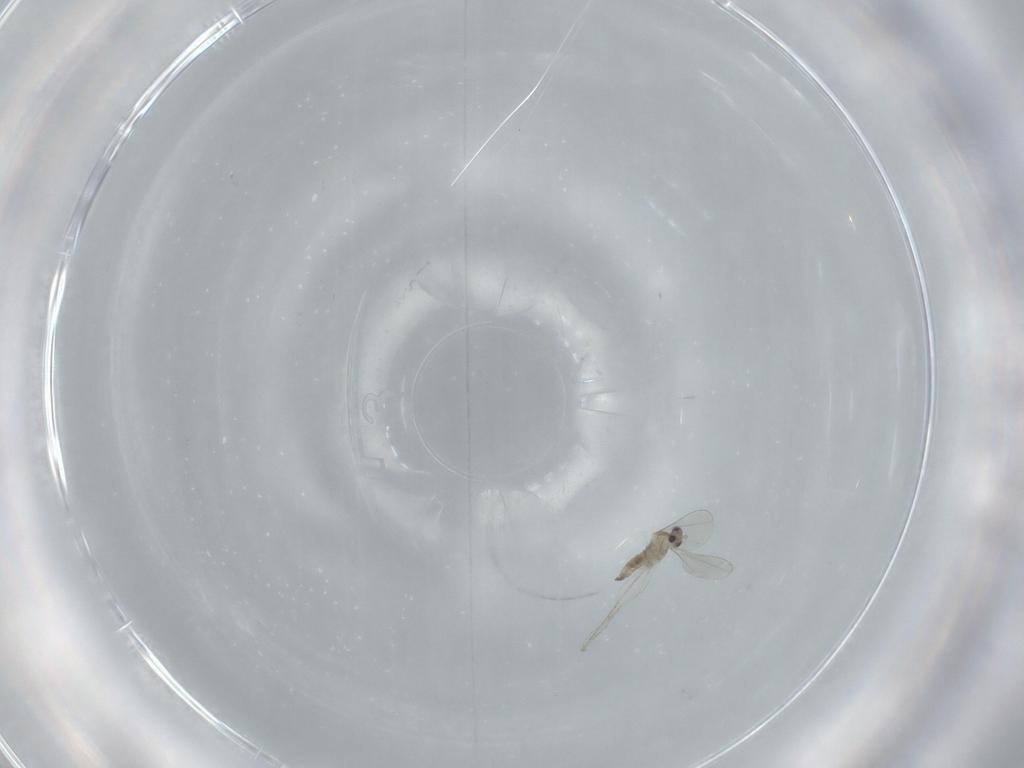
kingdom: Animalia
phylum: Arthropoda
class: Insecta
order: Diptera
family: Cecidomyiidae
